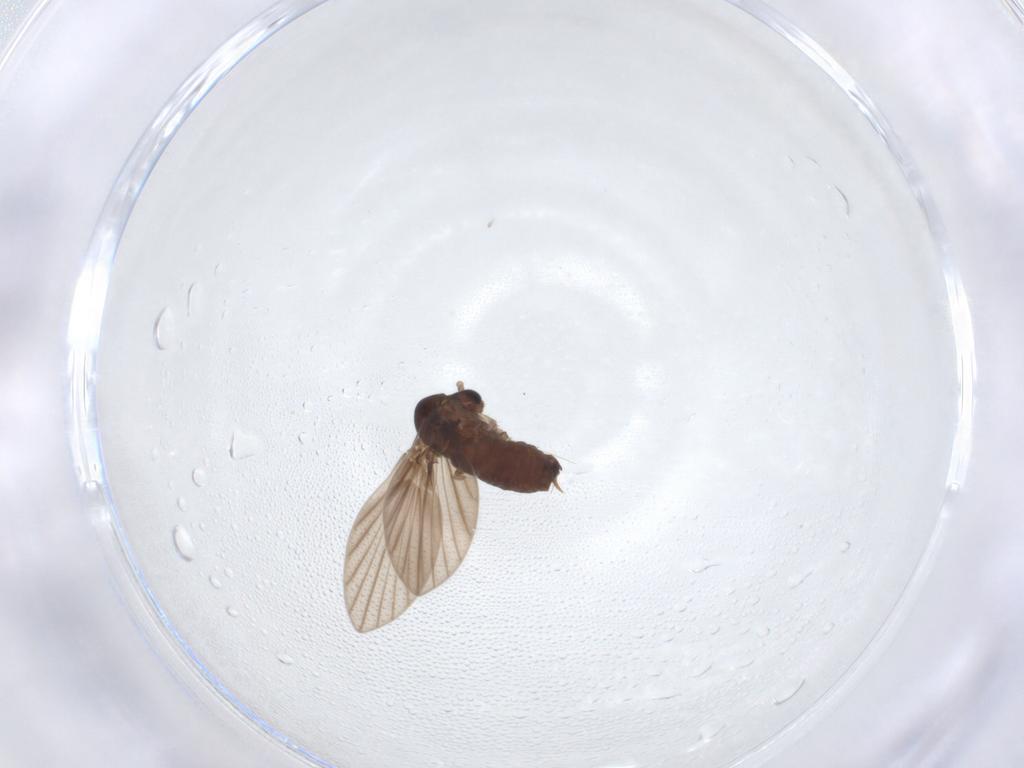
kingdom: Animalia
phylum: Arthropoda
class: Insecta
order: Diptera
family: Psychodidae
